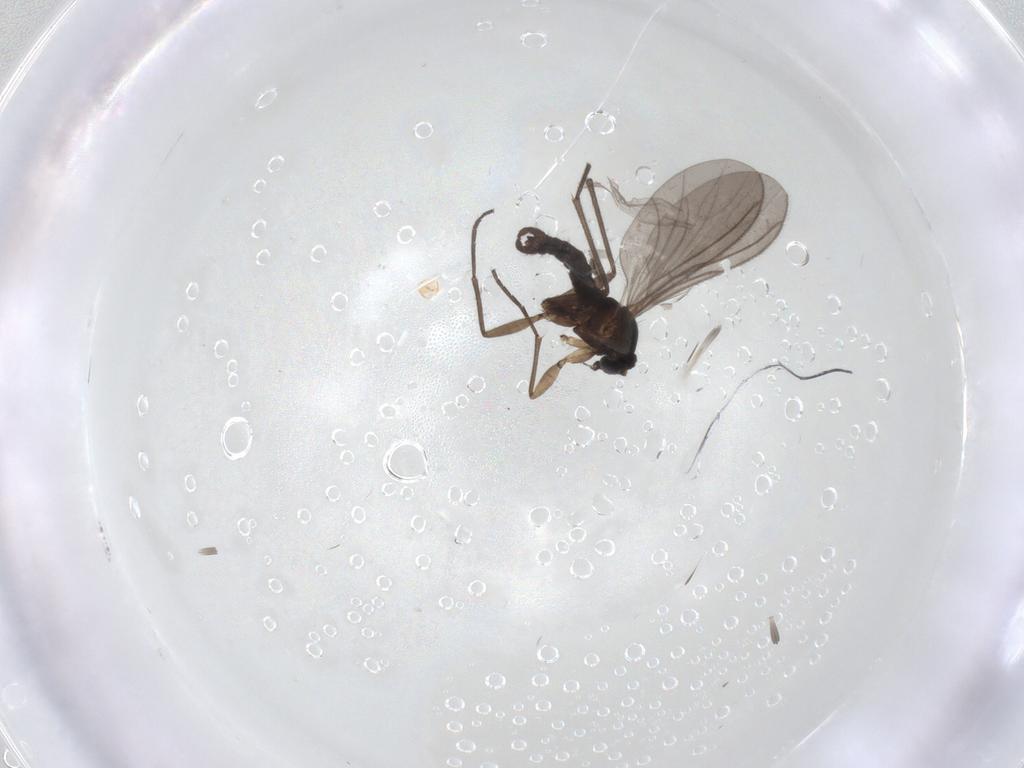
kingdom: Animalia
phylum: Arthropoda
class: Insecta
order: Diptera
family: Sciaridae
